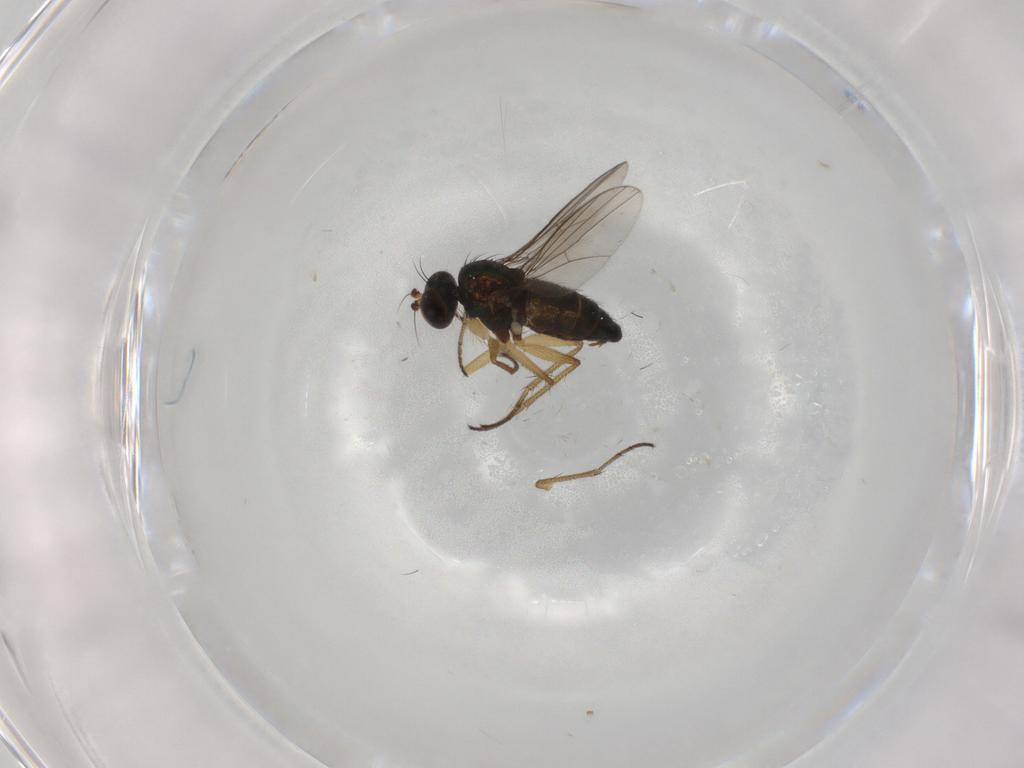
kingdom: Animalia
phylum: Arthropoda
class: Insecta
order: Diptera
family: Dolichopodidae
